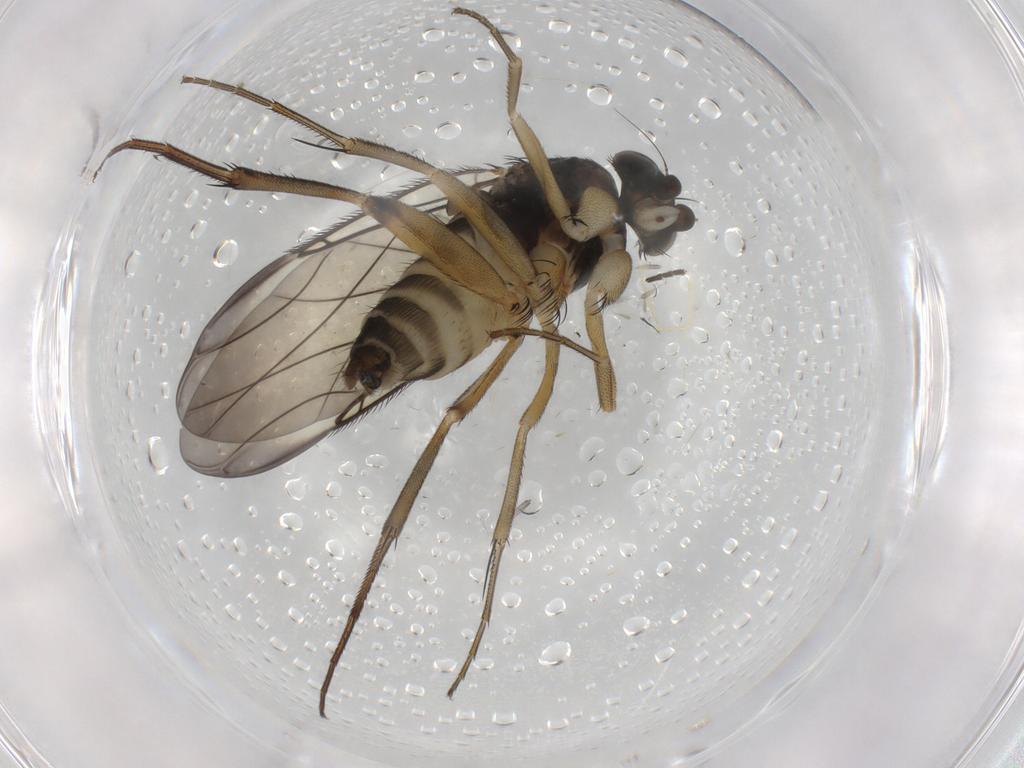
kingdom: Animalia
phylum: Arthropoda
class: Insecta
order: Diptera
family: Phoridae
